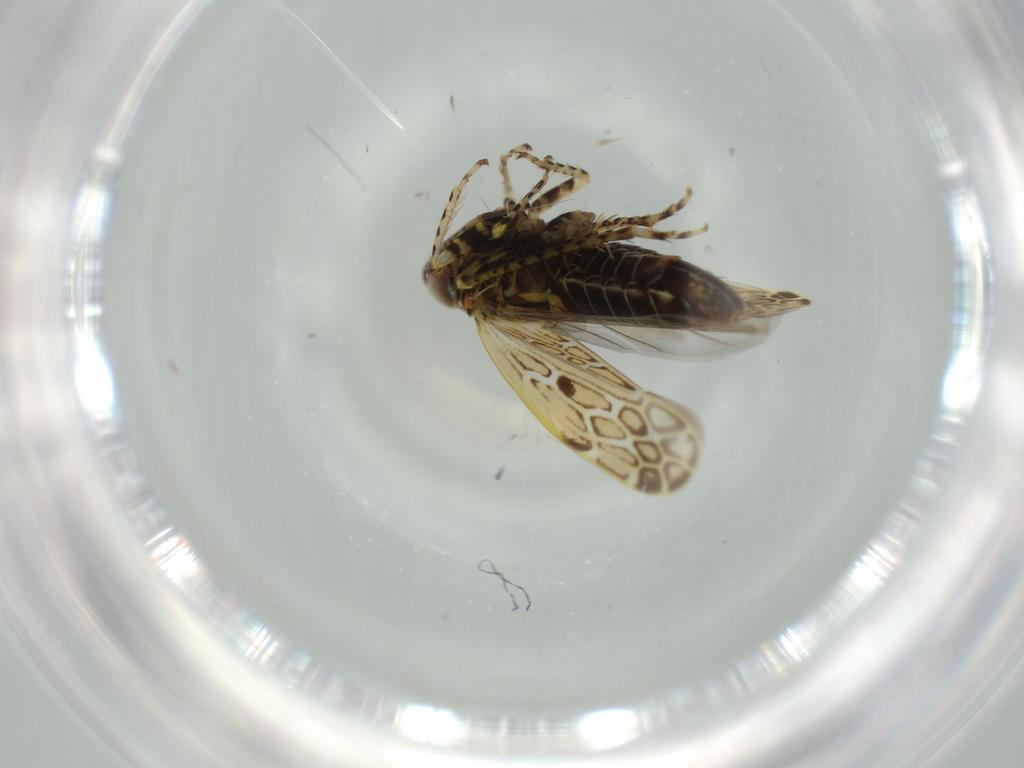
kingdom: Animalia
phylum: Arthropoda
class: Insecta
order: Hemiptera
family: Cicadellidae
